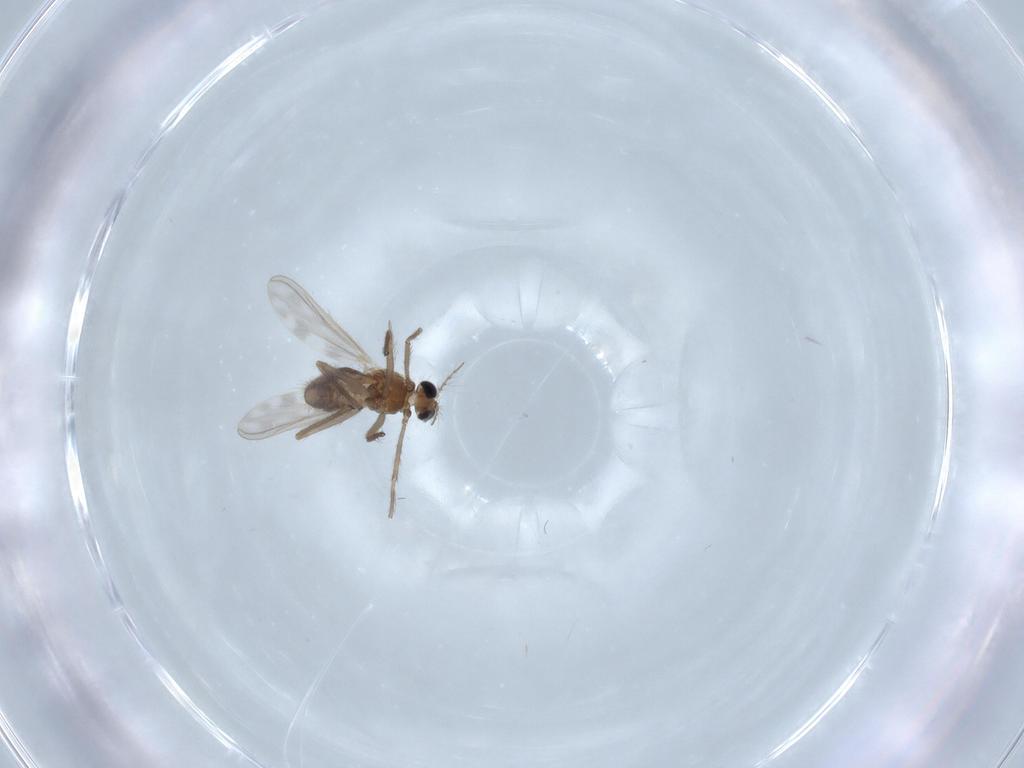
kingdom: Animalia
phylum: Arthropoda
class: Insecta
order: Diptera
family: Chironomidae
